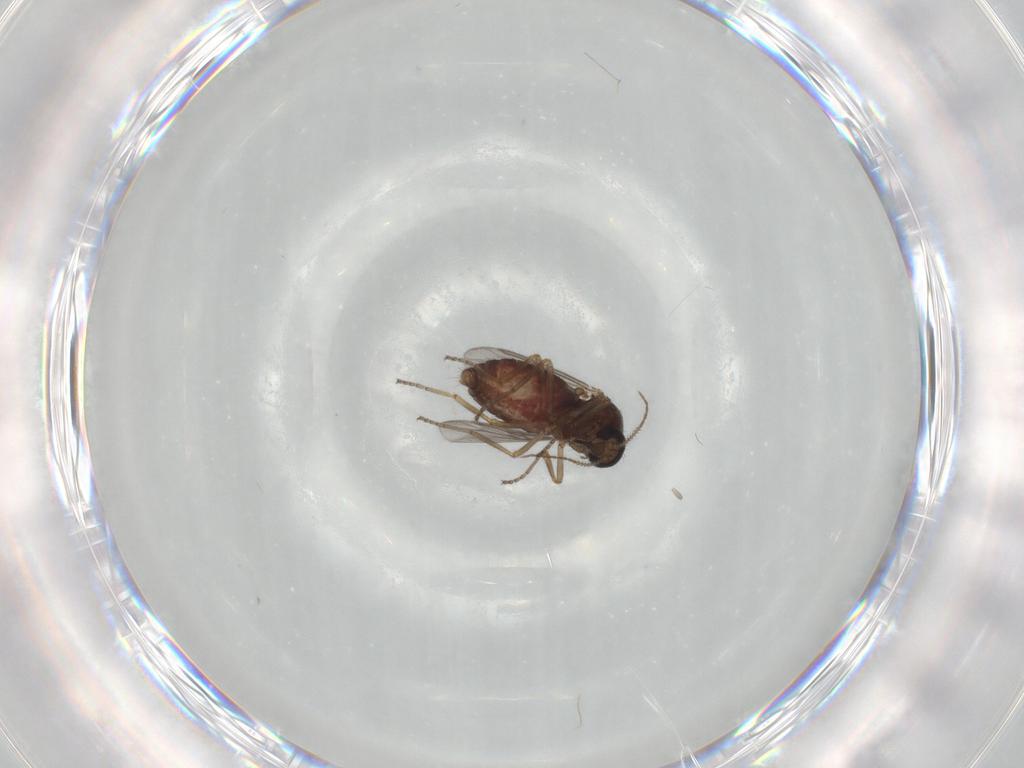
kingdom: Animalia
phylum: Arthropoda
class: Insecta
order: Diptera
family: Ceratopogonidae
